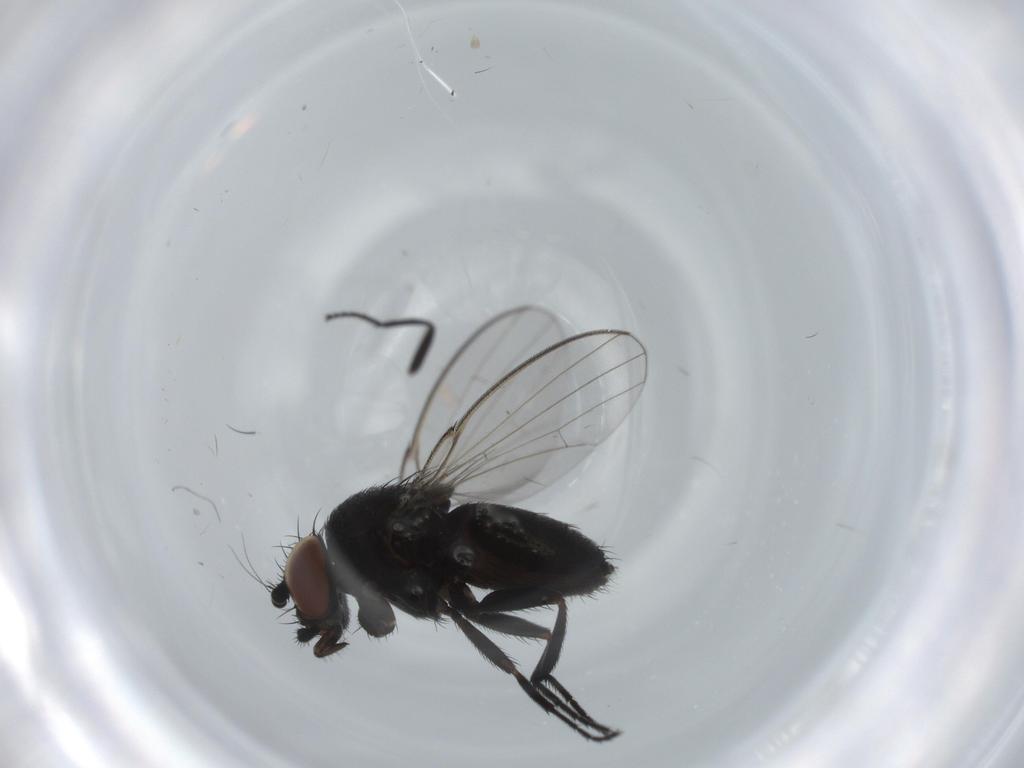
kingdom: Animalia
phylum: Arthropoda
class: Insecta
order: Diptera
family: Milichiidae
